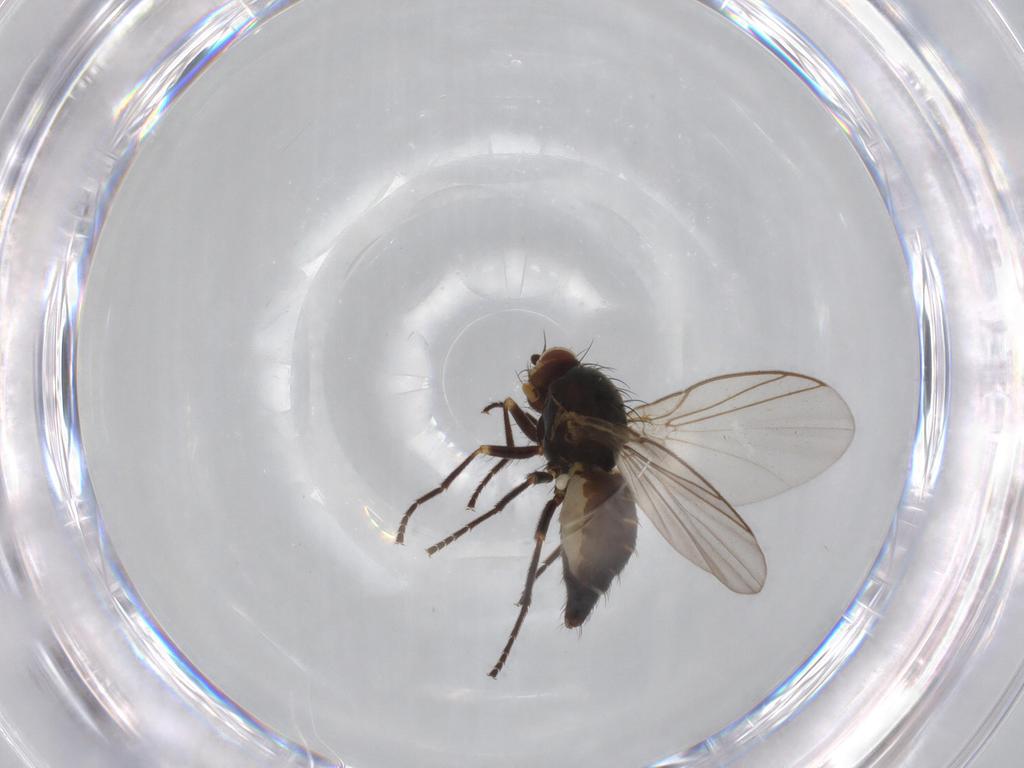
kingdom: Animalia
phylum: Arthropoda
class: Insecta
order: Diptera
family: Agromyzidae
